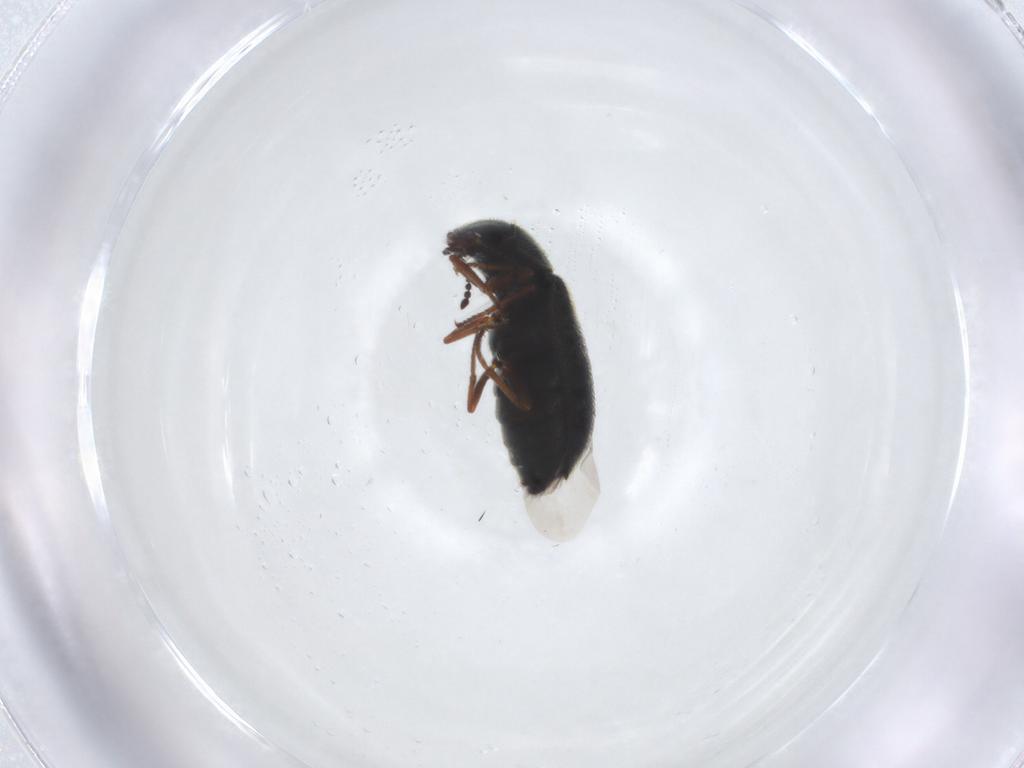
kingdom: Animalia
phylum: Arthropoda
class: Insecta
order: Coleoptera
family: Melyridae
